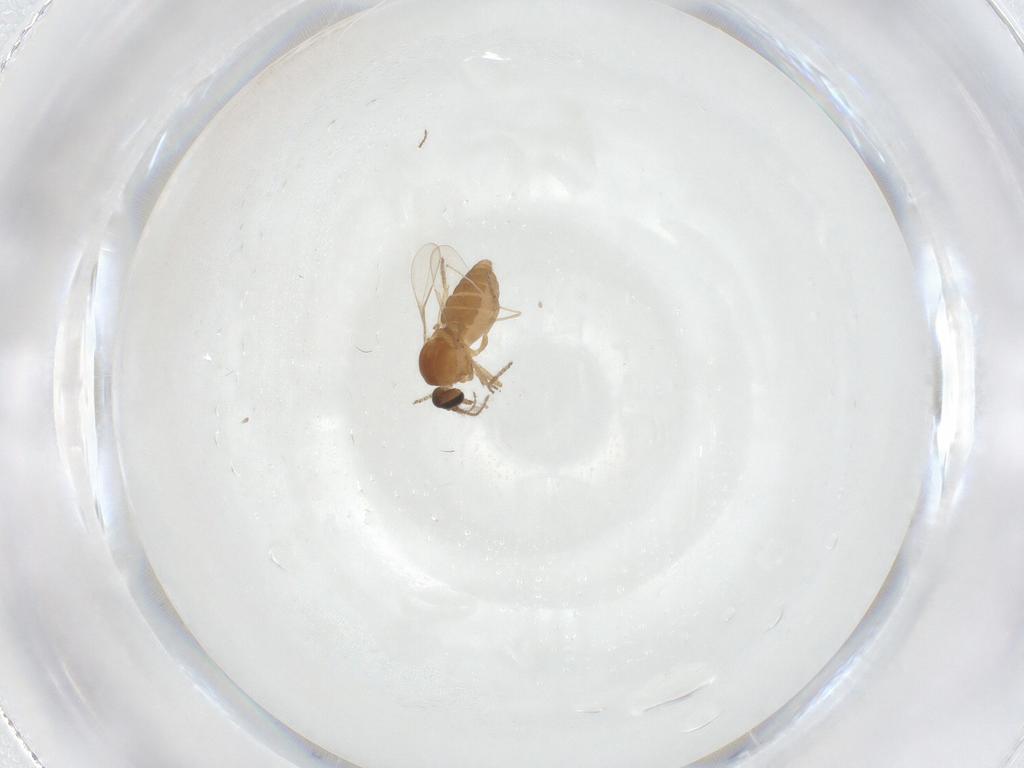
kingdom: Animalia
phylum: Arthropoda
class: Insecta
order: Diptera
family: Ceratopogonidae
